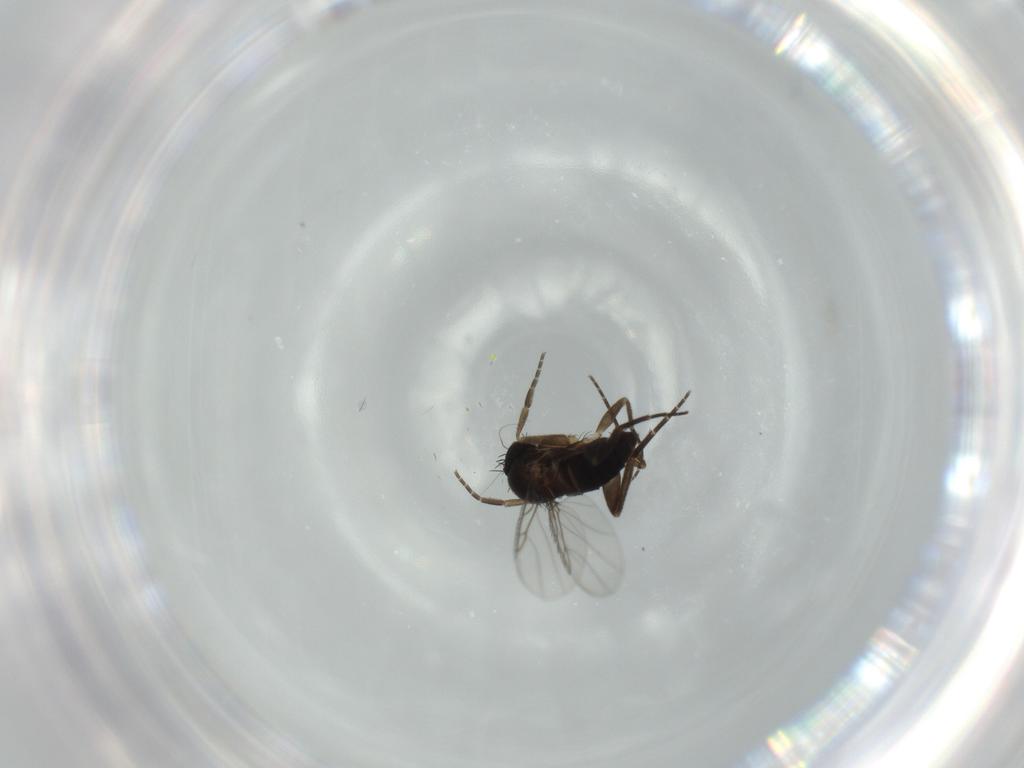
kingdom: Animalia
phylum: Arthropoda
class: Insecta
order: Diptera
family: Phoridae
